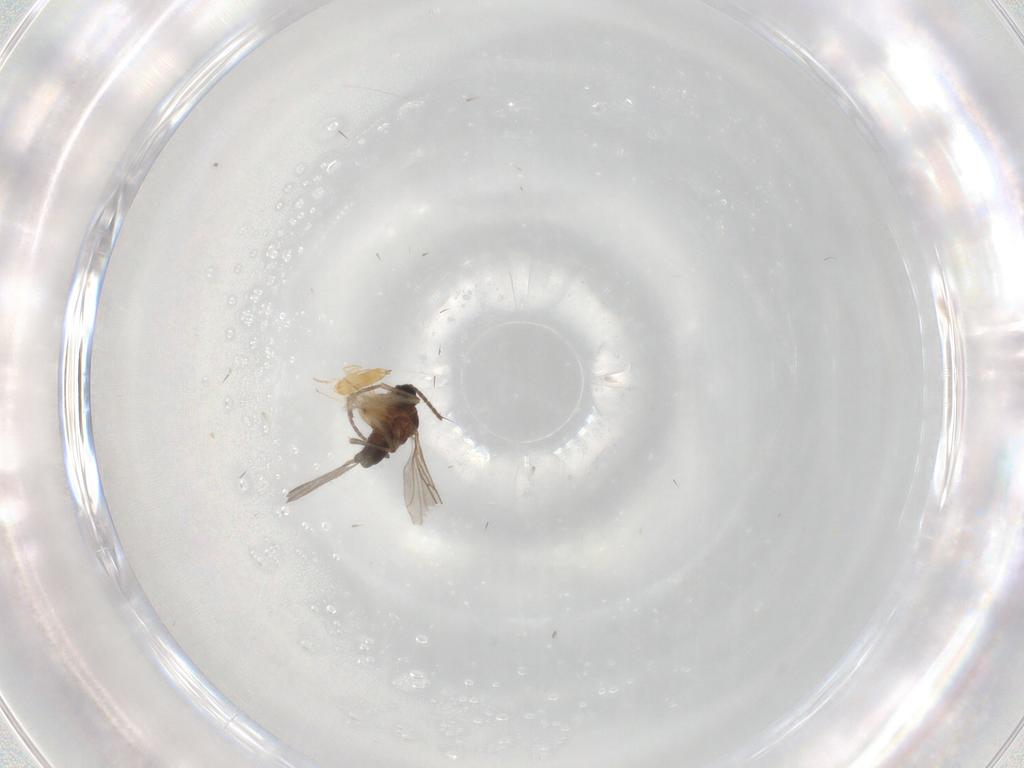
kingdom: Animalia
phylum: Arthropoda
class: Insecta
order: Diptera
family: Sciaridae
